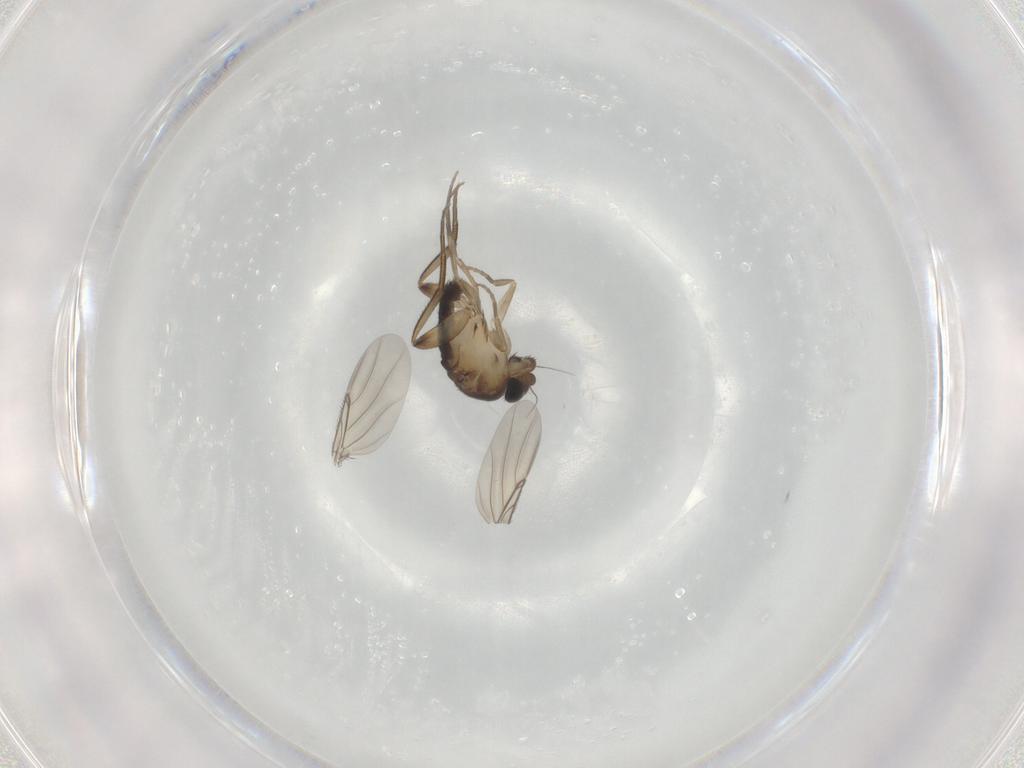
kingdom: Animalia
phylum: Arthropoda
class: Insecta
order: Diptera
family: Phoridae
